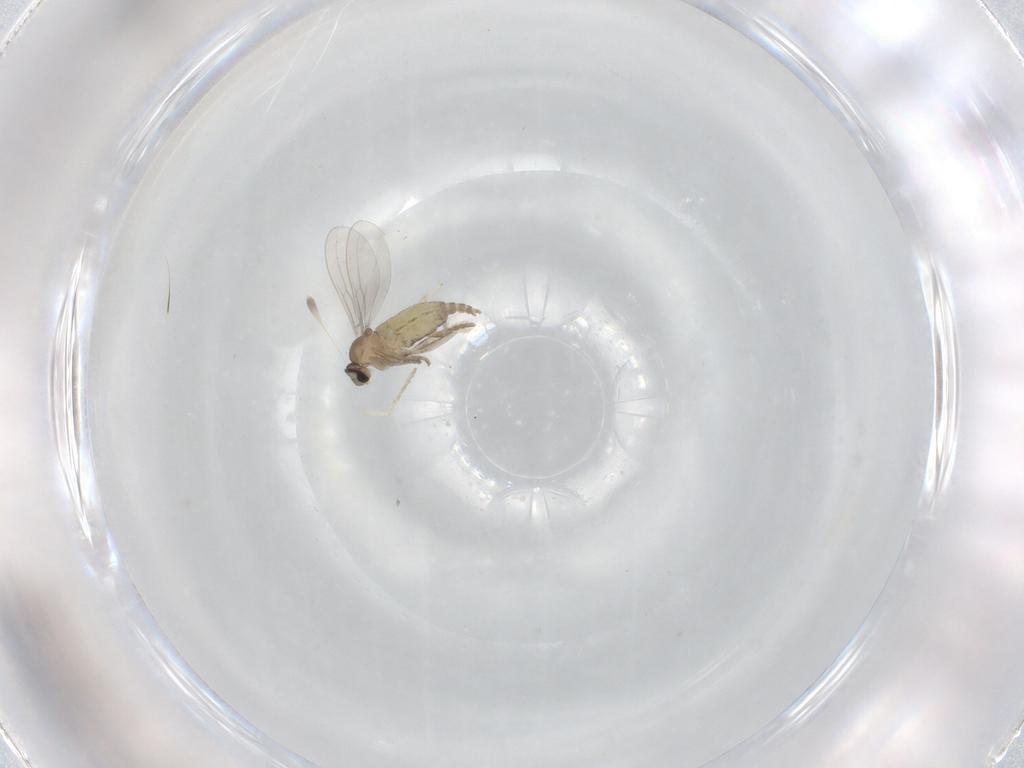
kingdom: Animalia
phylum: Arthropoda
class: Insecta
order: Diptera
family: Cecidomyiidae
